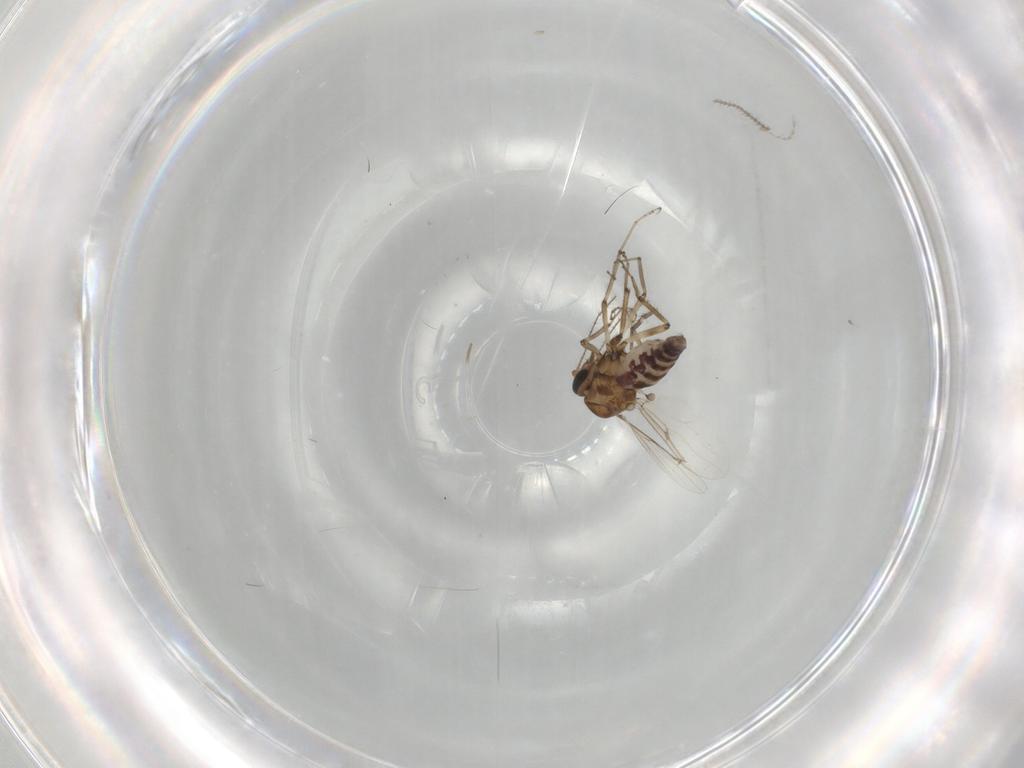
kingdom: Animalia
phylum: Arthropoda
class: Insecta
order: Diptera
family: Ceratopogonidae
